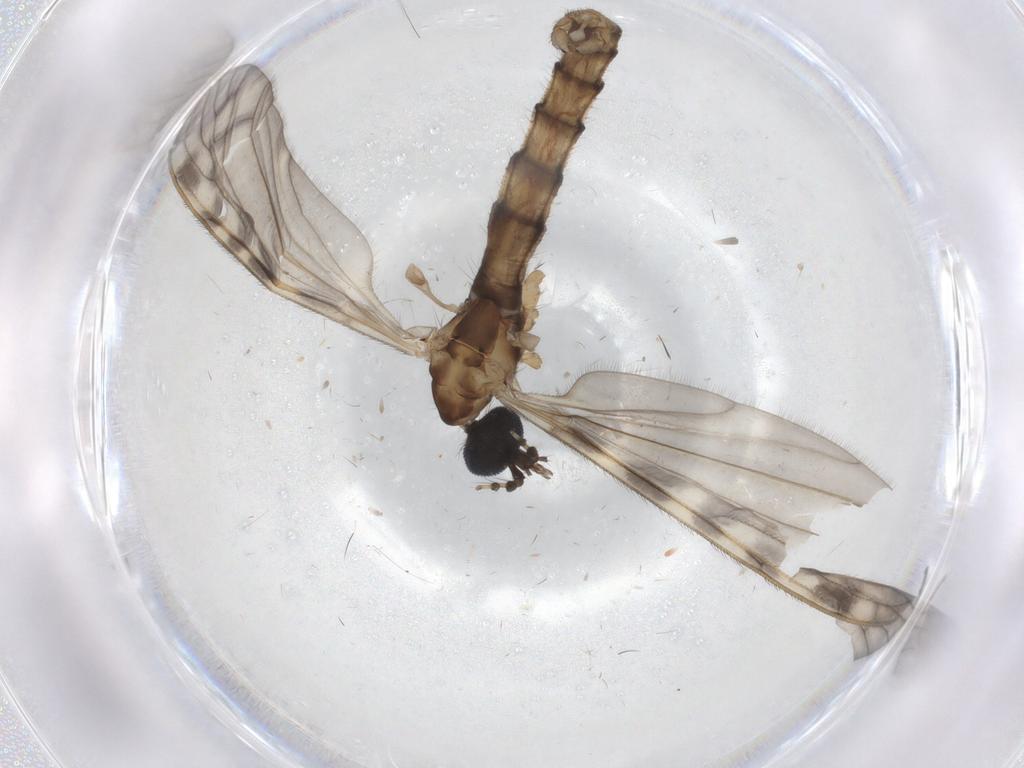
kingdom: Animalia
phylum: Arthropoda
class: Insecta
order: Diptera
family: Cecidomyiidae
